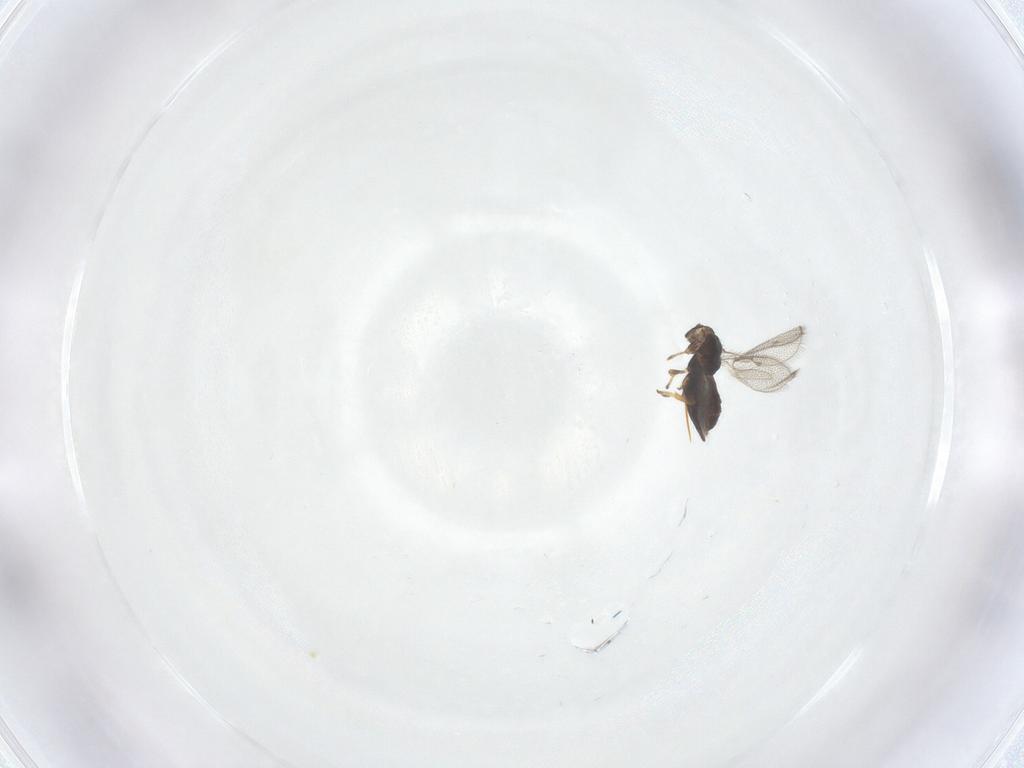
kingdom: Animalia
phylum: Arthropoda
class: Insecta
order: Hymenoptera
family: Pirenidae
